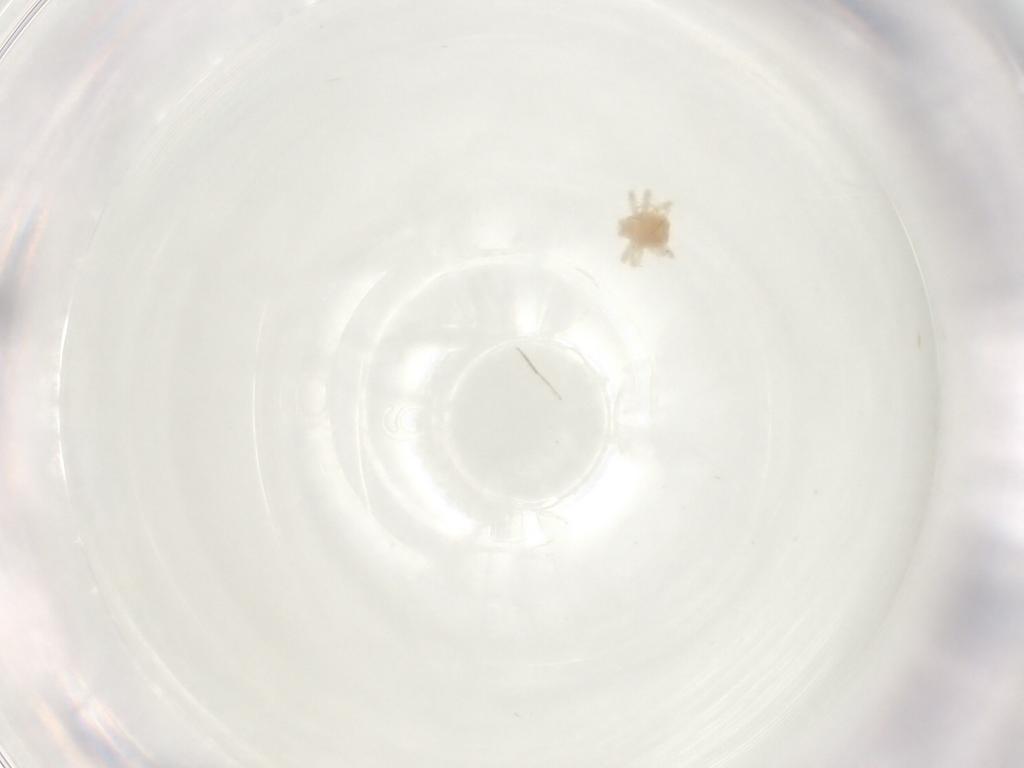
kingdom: Animalia
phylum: Arthropoda
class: Arachnida
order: Trombidiformes
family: Anystidae
